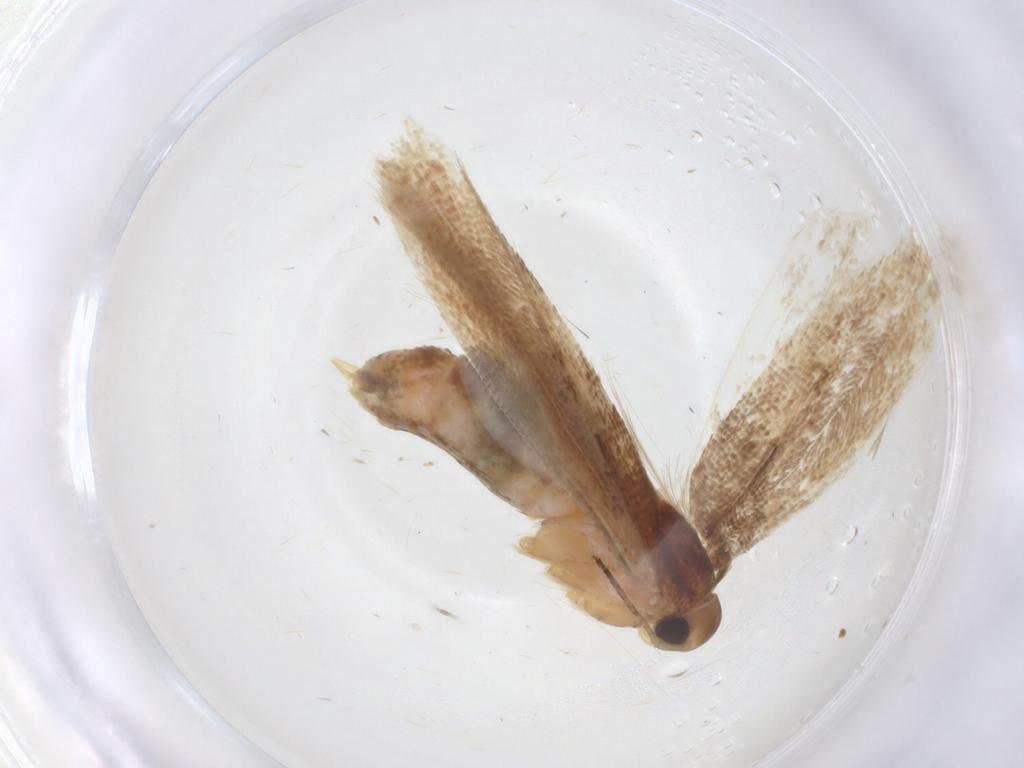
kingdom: Animalia
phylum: Arthropoda
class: Insecta
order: Lepidoptera
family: Gelechiidae
